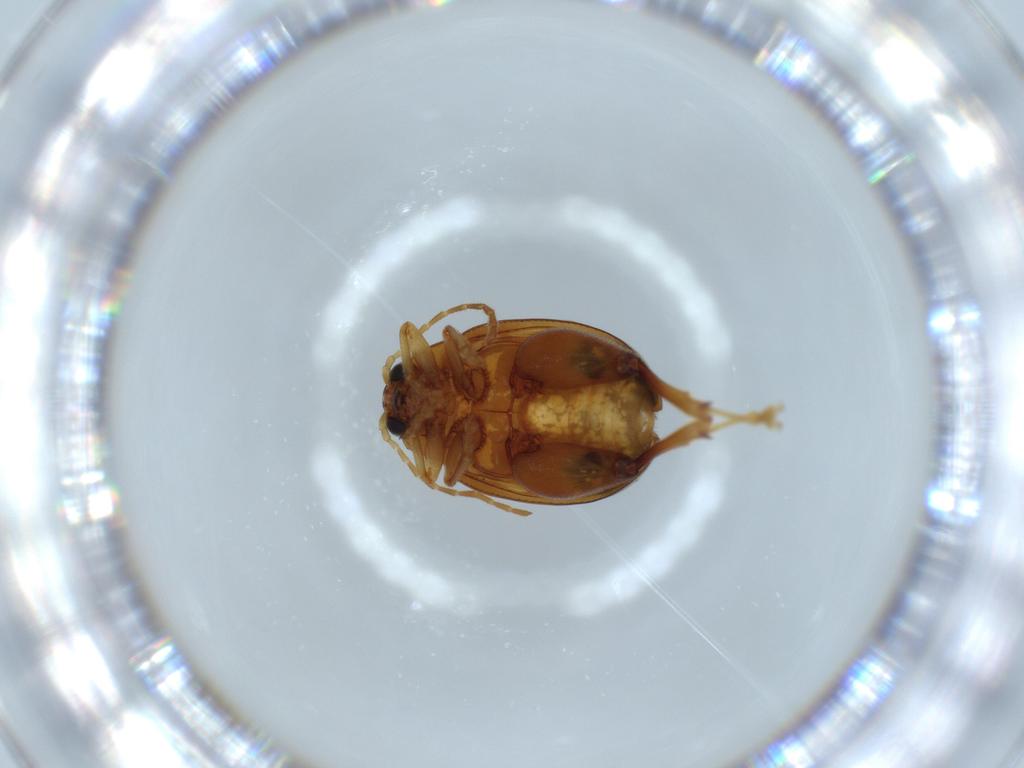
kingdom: Animalia
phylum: Arthropoda
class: Insecta
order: Coleoptera
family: Chrysomelidae
